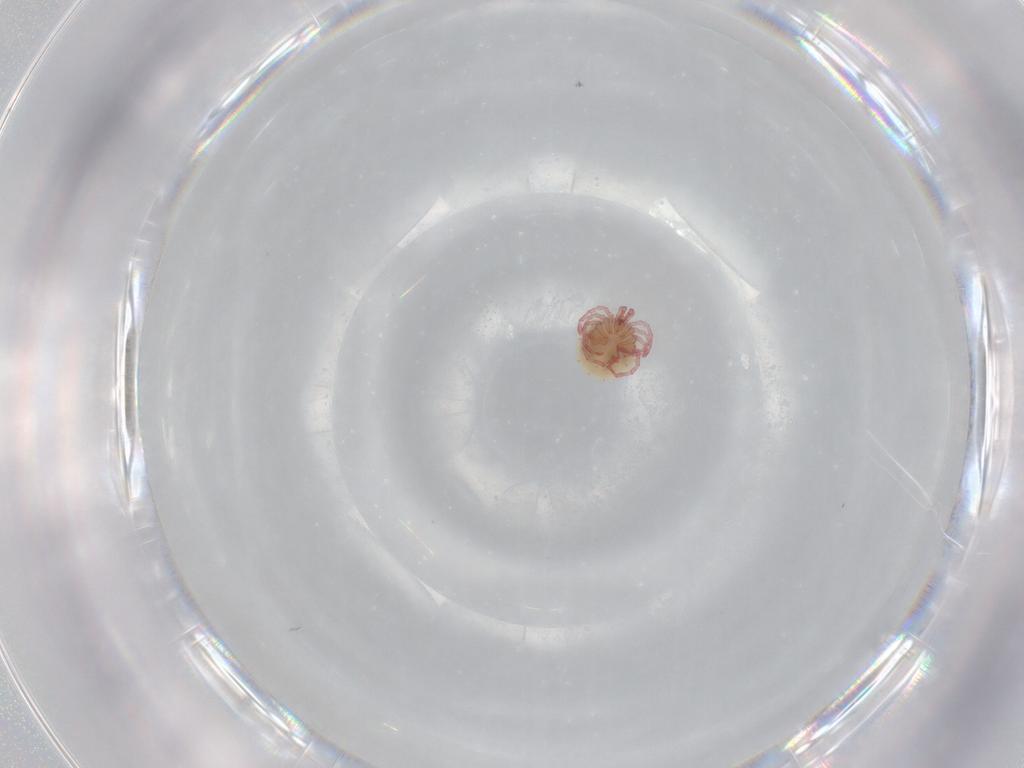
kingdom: Animalia
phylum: Arthropoda
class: Arachnida
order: Trombidiformes
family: Pionidae
